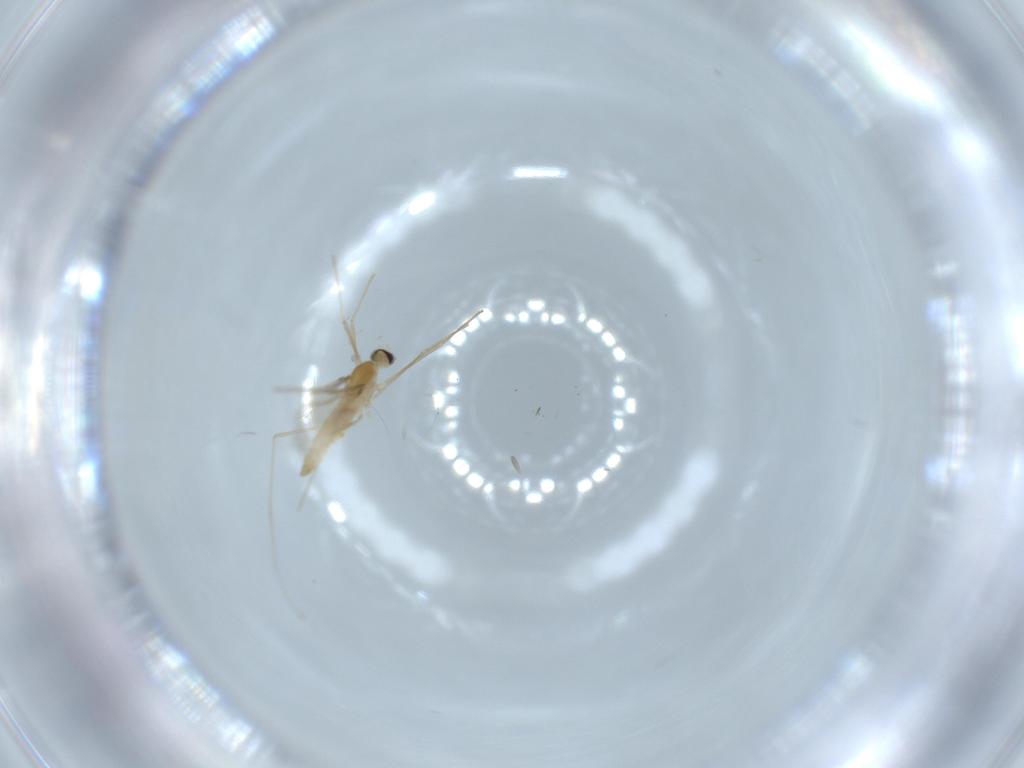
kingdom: Animalia
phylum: Arthropoda
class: Insecta
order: Diptera
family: Cecidomyiidae
